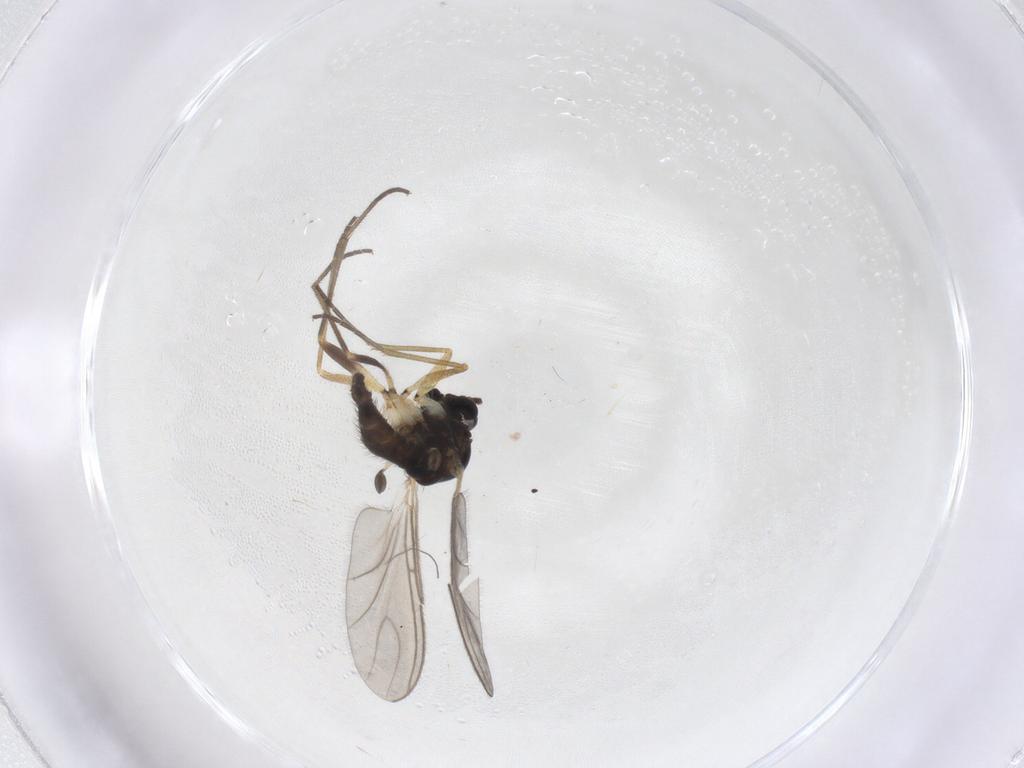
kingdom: Animalia
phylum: Arthropoda
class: Insecta
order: Diptera
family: Sciaridae
